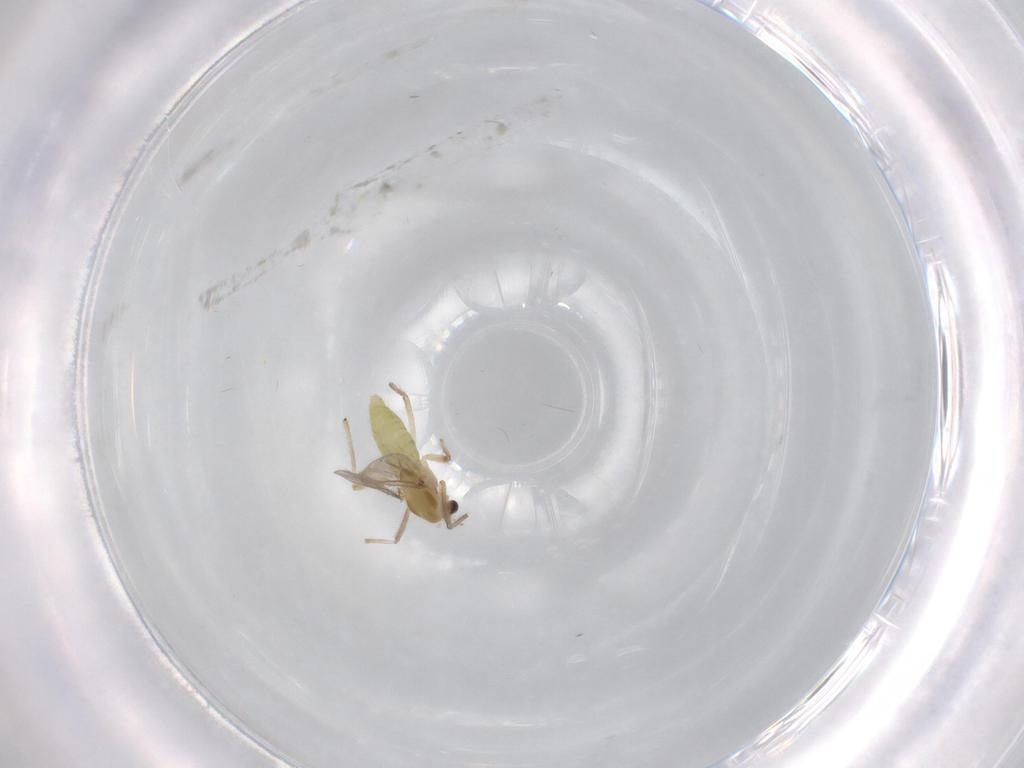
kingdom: Animalia
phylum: Arthropoda
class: Insecta
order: Diptera
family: Chironomidae
